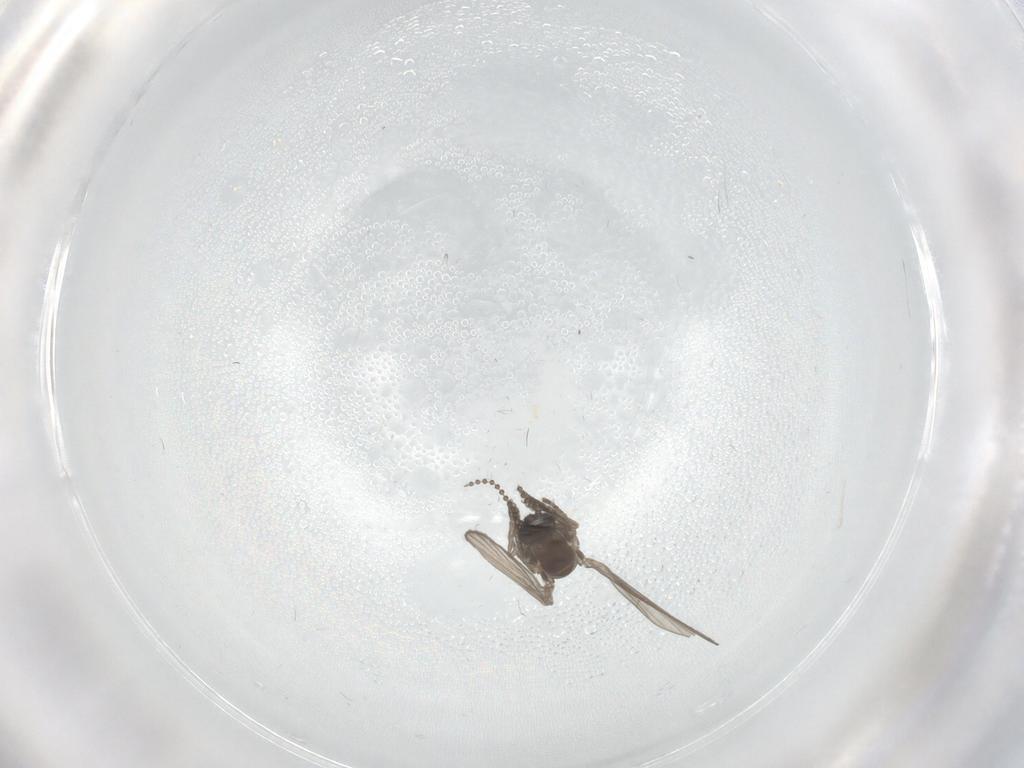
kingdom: Animalia
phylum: Arthropoda
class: Insecta
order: Diptera
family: Psychodidae
